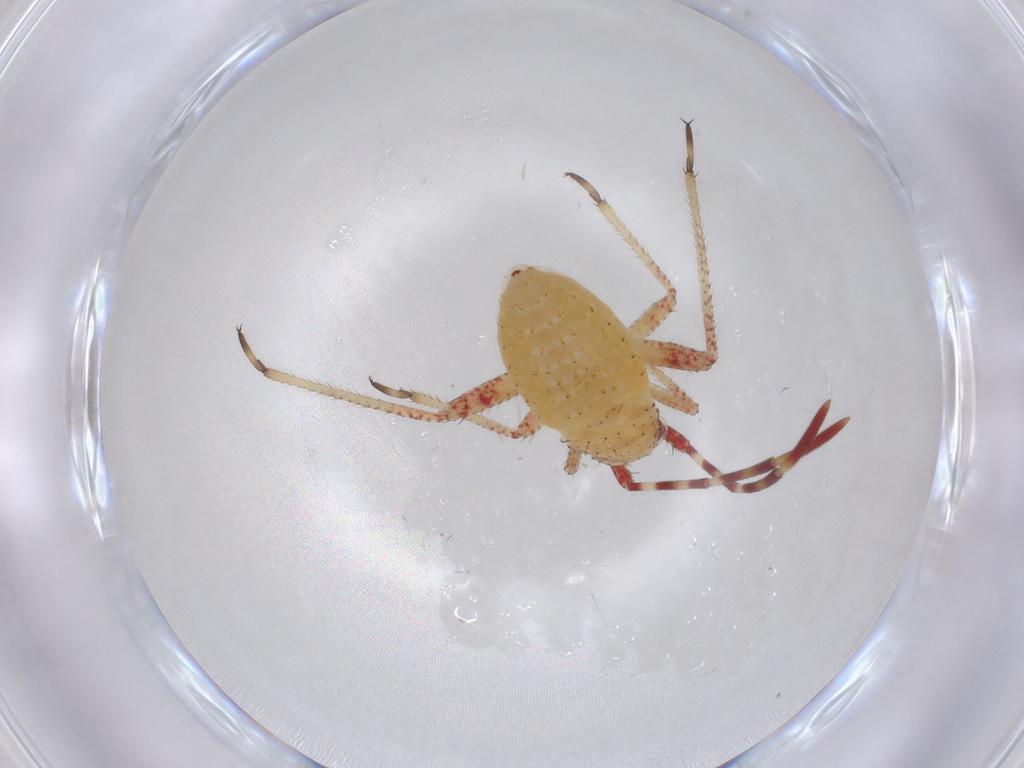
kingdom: Animalia
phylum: Arthropoda
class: Insecta
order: Hemiptera
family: Miridae
